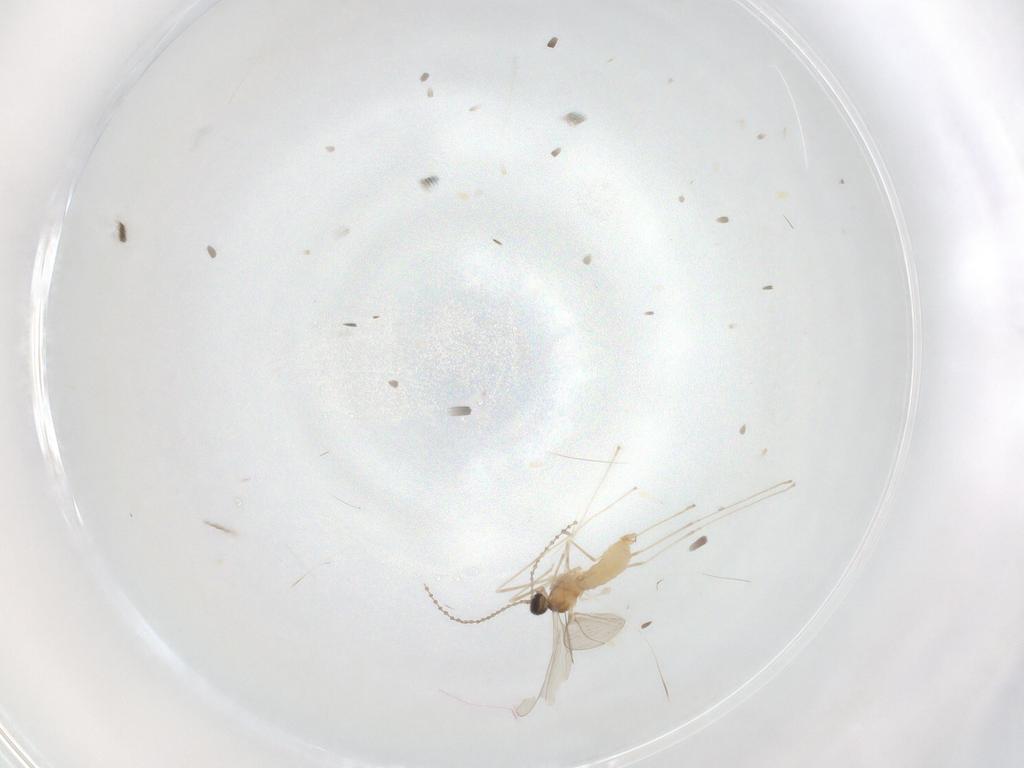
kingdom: Animalia
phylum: Arthropoda
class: Insecta
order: Diptera
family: Cecidomyiidae
